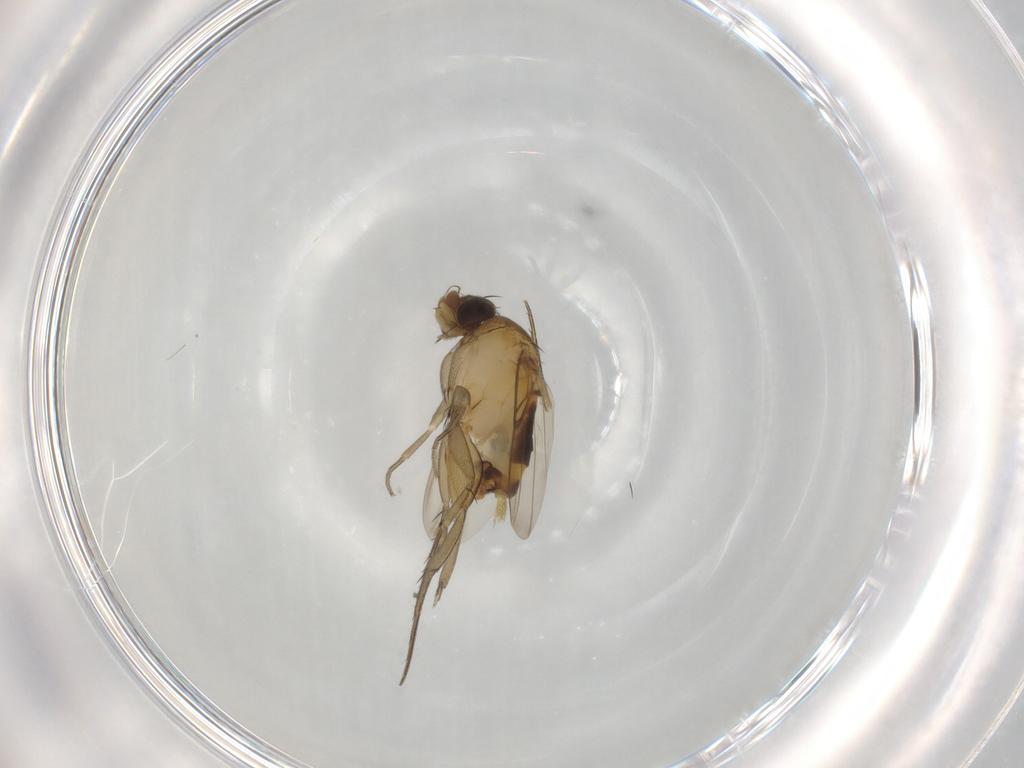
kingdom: Animalia
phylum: Arthropoda
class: Insecta
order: Diptera
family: Phoridae
